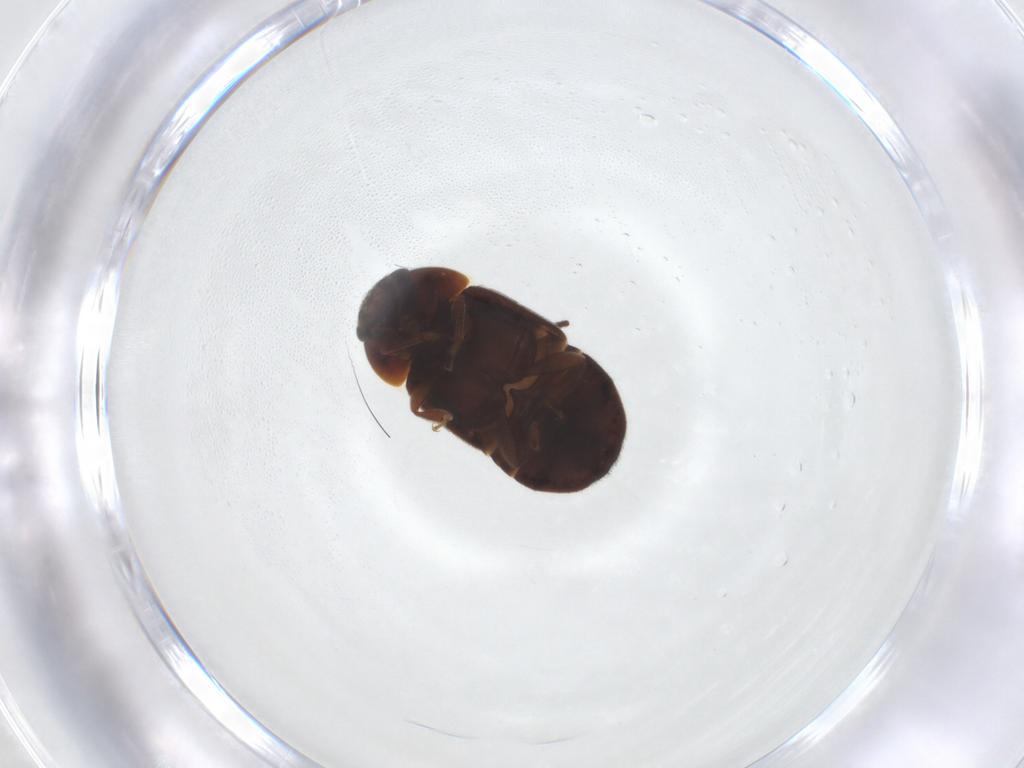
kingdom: Animalia
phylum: Arthropoda
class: Insecta
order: Coleoptera
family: Nitidulidae
